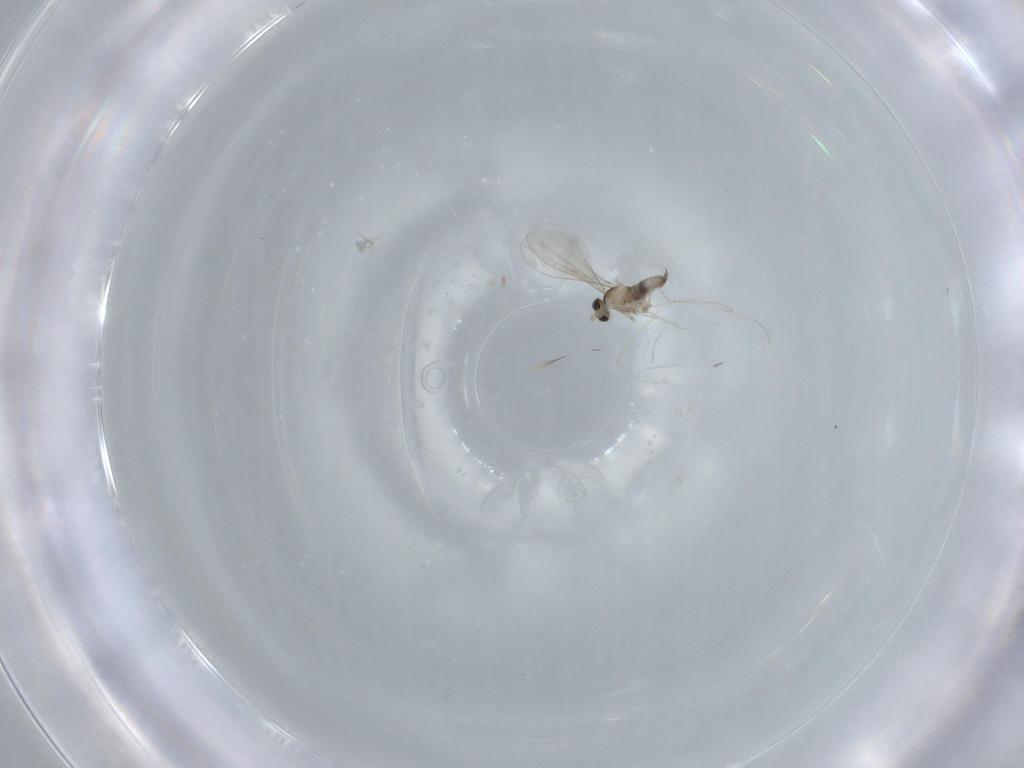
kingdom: Animalia
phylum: Arthropoda
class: Insecta
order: Diptera
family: Cecidomyiidae
